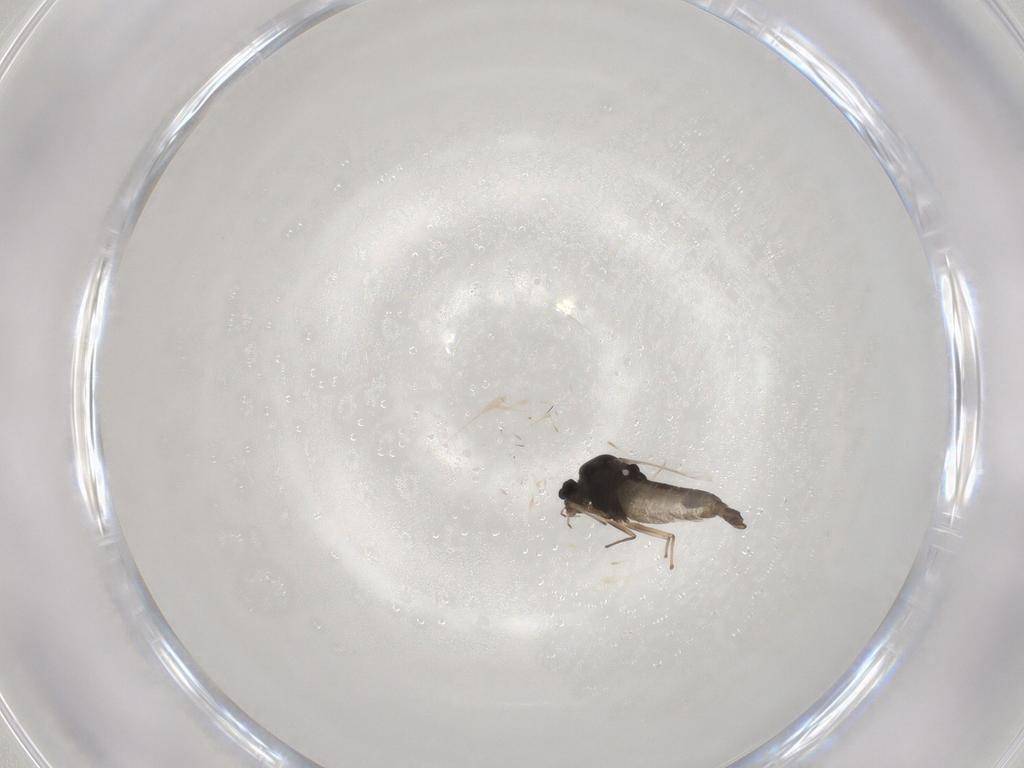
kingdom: Animalia
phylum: Arthropoda
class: Insecta
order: Diptera
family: Chironomidae
